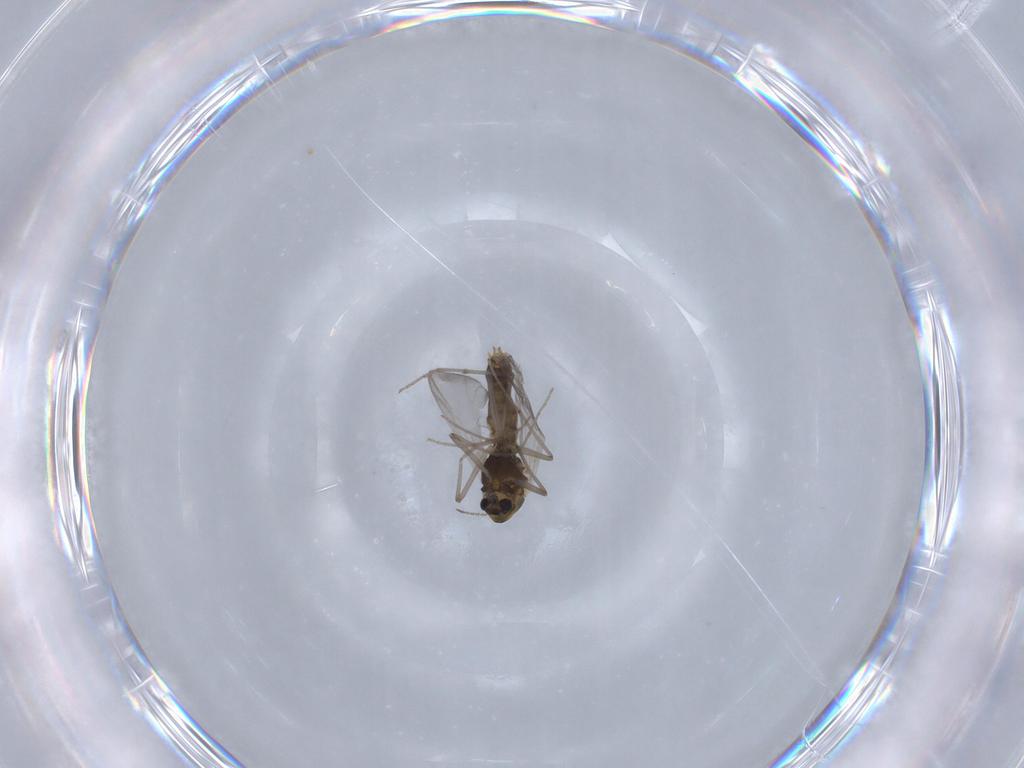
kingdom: Animalia
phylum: Arthropoda
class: Insecta
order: Diptera
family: Chironomidae
